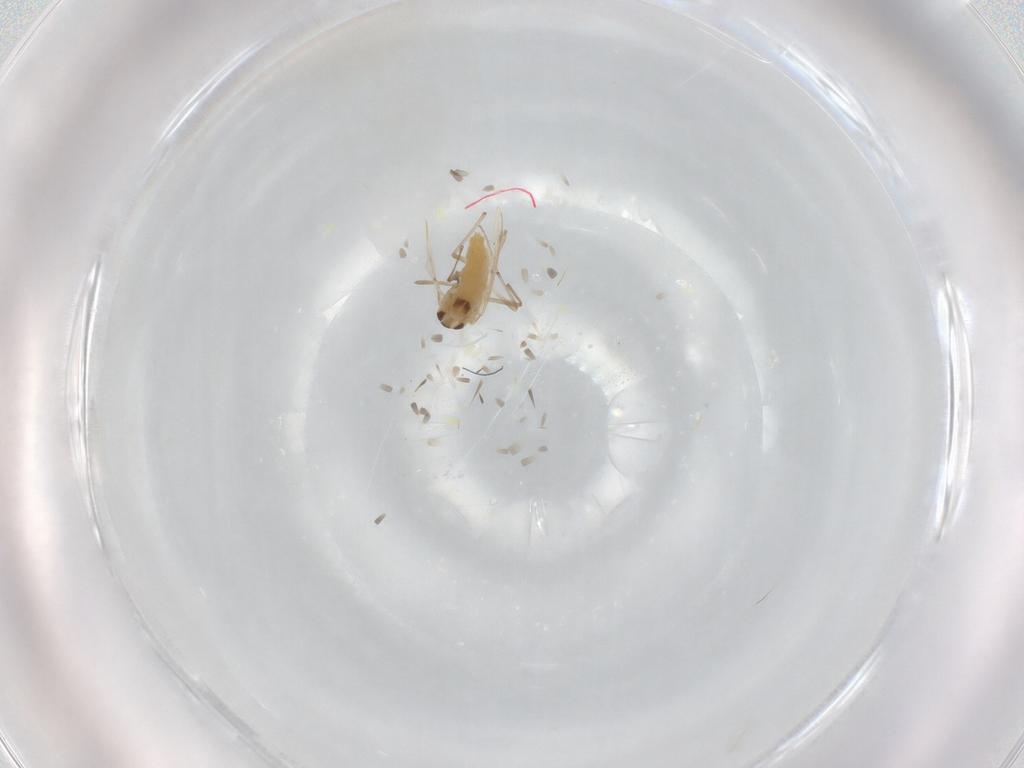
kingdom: Animalia
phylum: Arthropoda
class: Insecta
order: Diptera
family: Chironomidae
